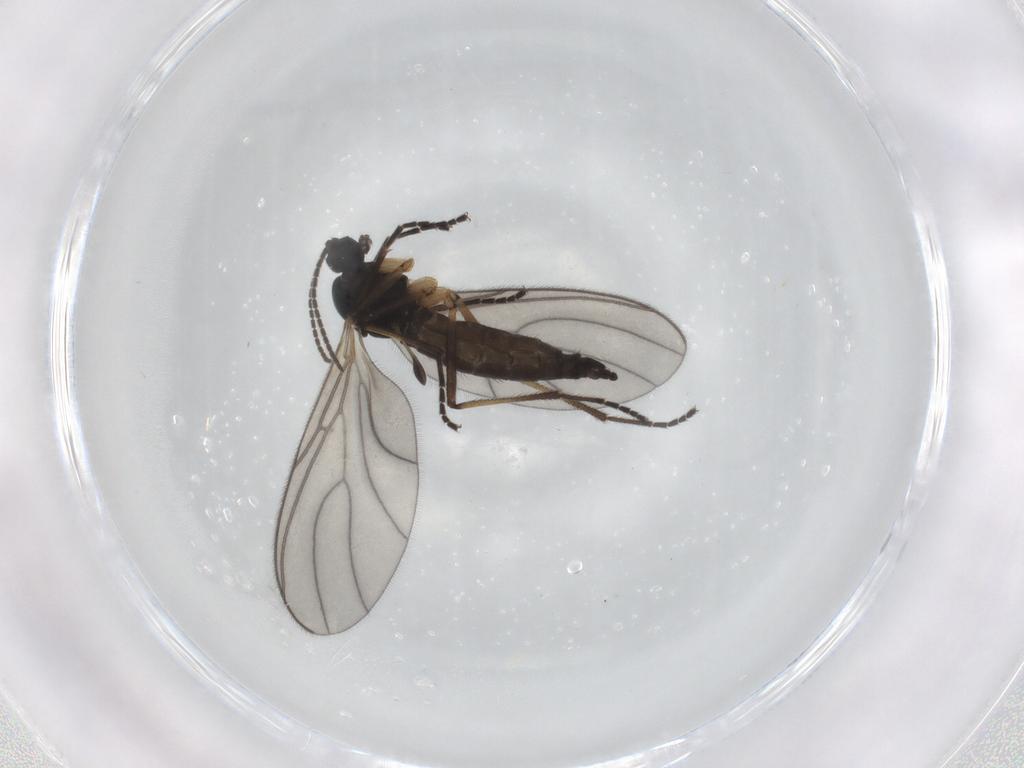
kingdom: Animalia
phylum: Arthropoda
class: Insecta
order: Diptera
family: Sciaridae
